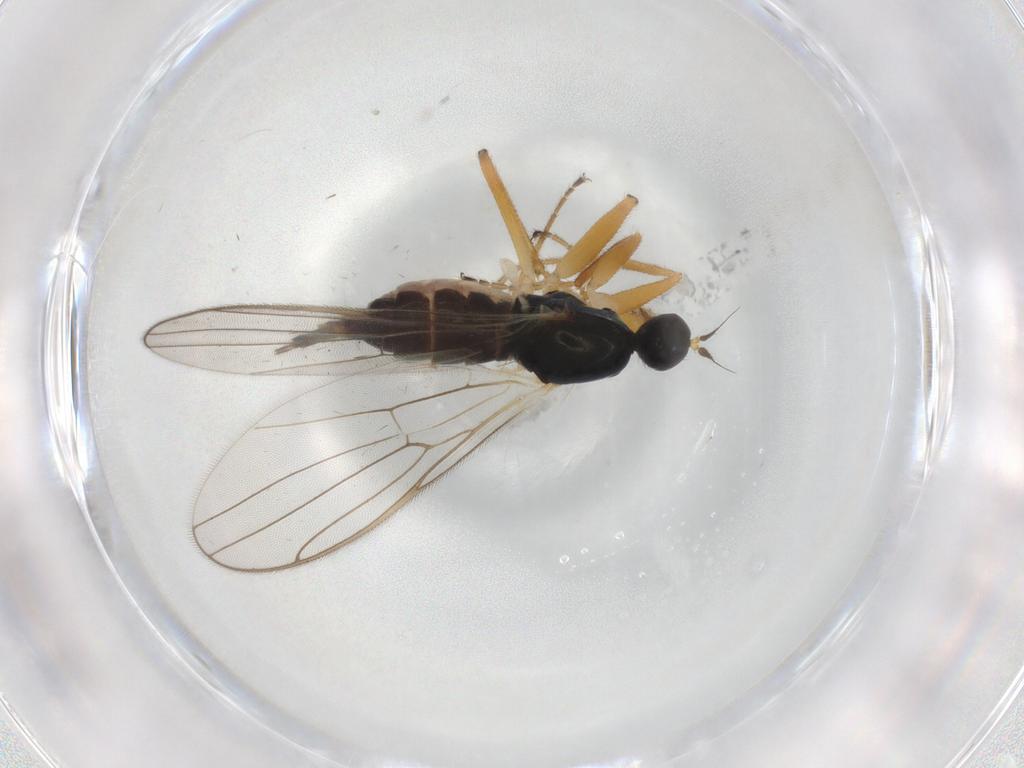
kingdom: Animalia
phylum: Arthropoda
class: Insecta
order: Diptera
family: Hybotidae
